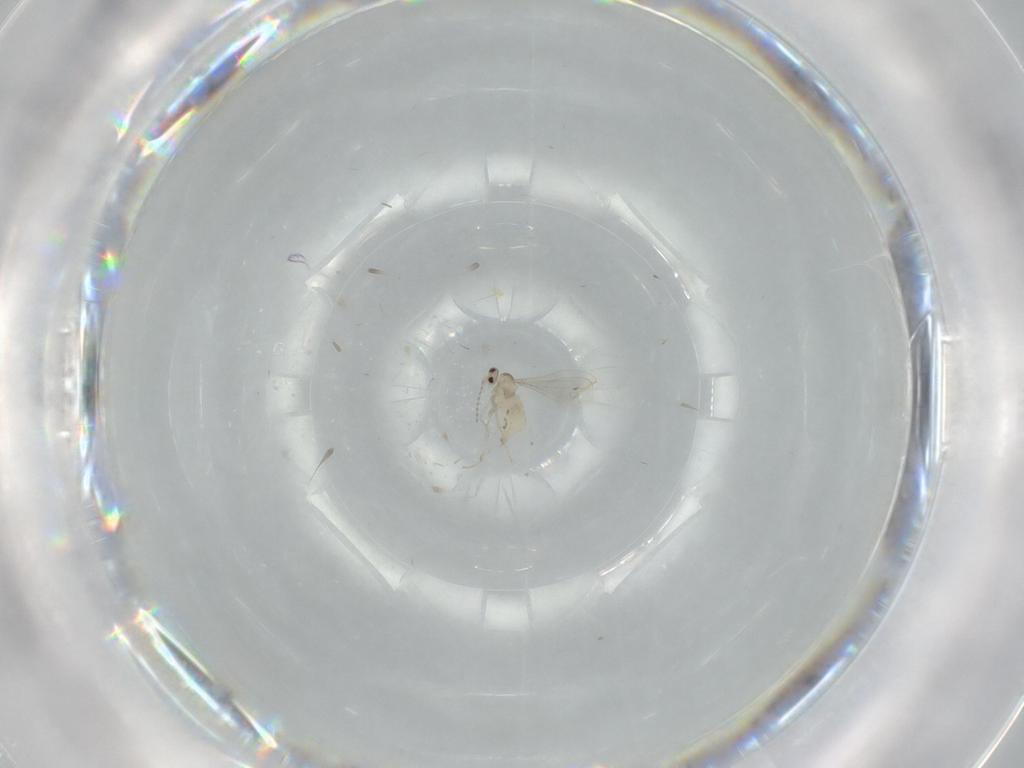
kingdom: Animalia
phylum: Arthropoda
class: Insecta
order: Diptera
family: Cecidomyiidae
